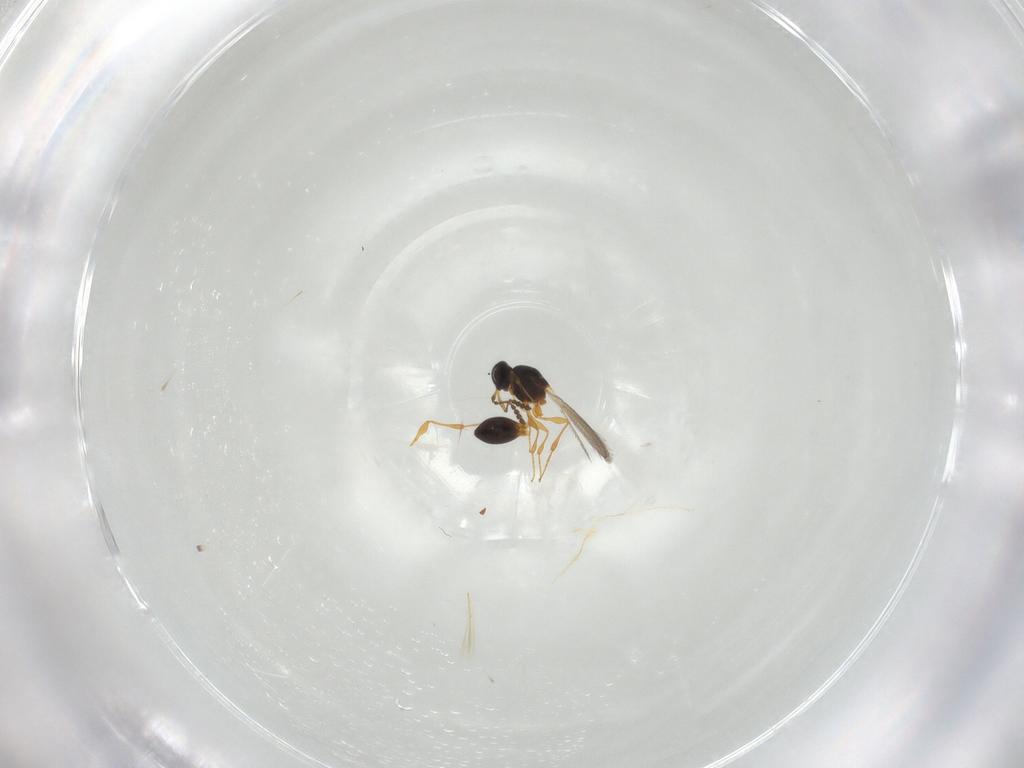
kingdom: Animalia
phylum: Arthropoda
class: Insecta
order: Hymenoptera
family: Platygastridae
